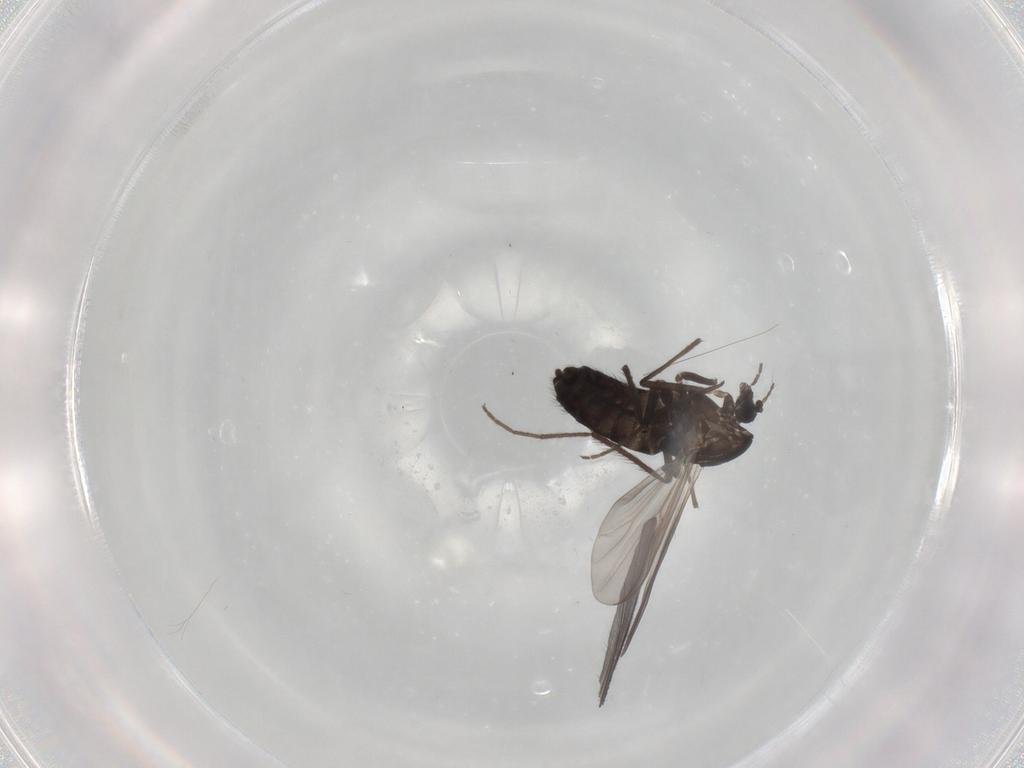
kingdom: Animalia
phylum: Arthropoda
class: Insecta
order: Diptera
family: Chironomidae
